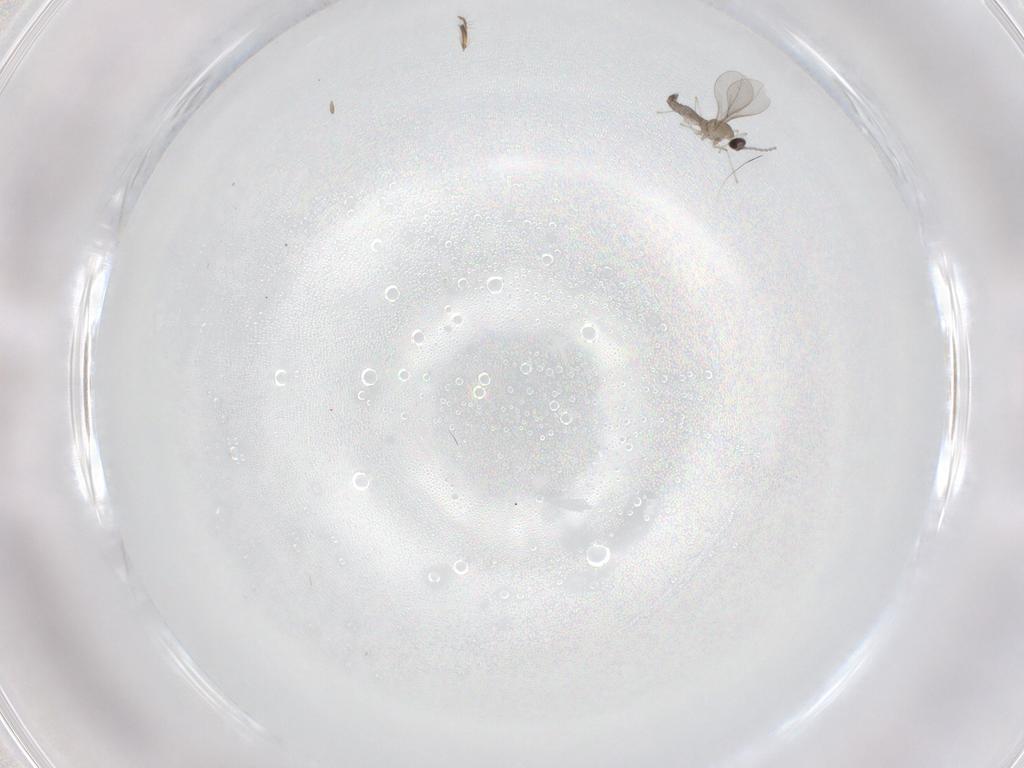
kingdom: Animalia
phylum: Arthropoda
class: Insecta
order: Diptera
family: Ceratopogonidae
